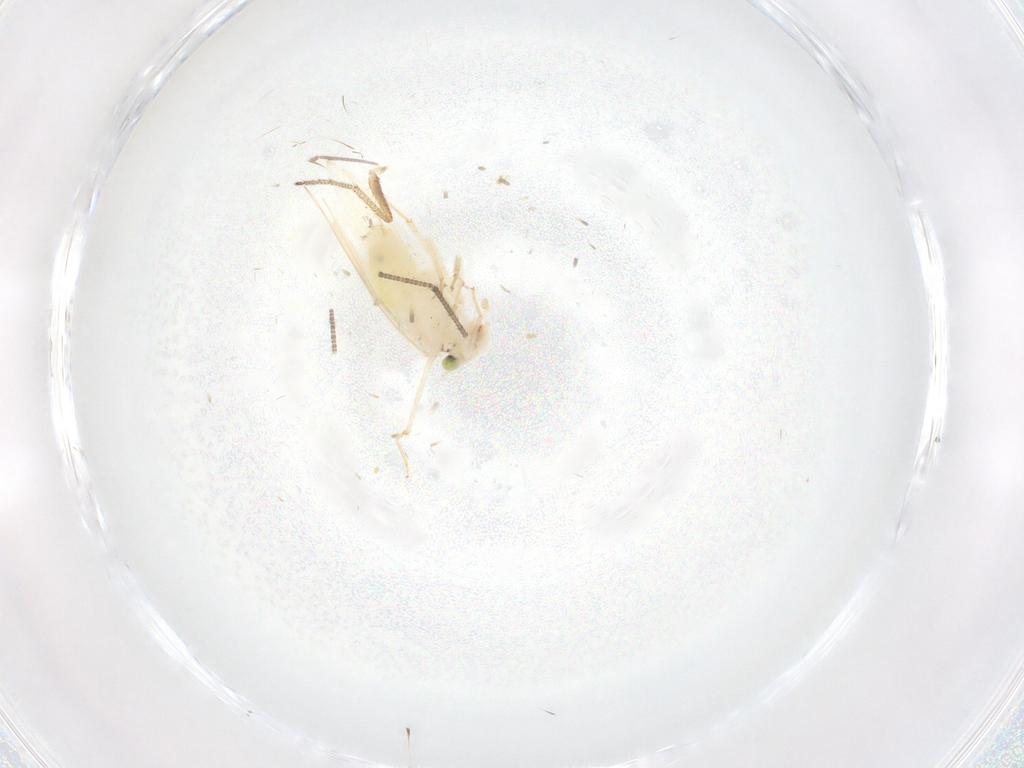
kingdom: Animalia
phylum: Arthropoda
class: Insecta
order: Psocodea
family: Lepidopsocidae
